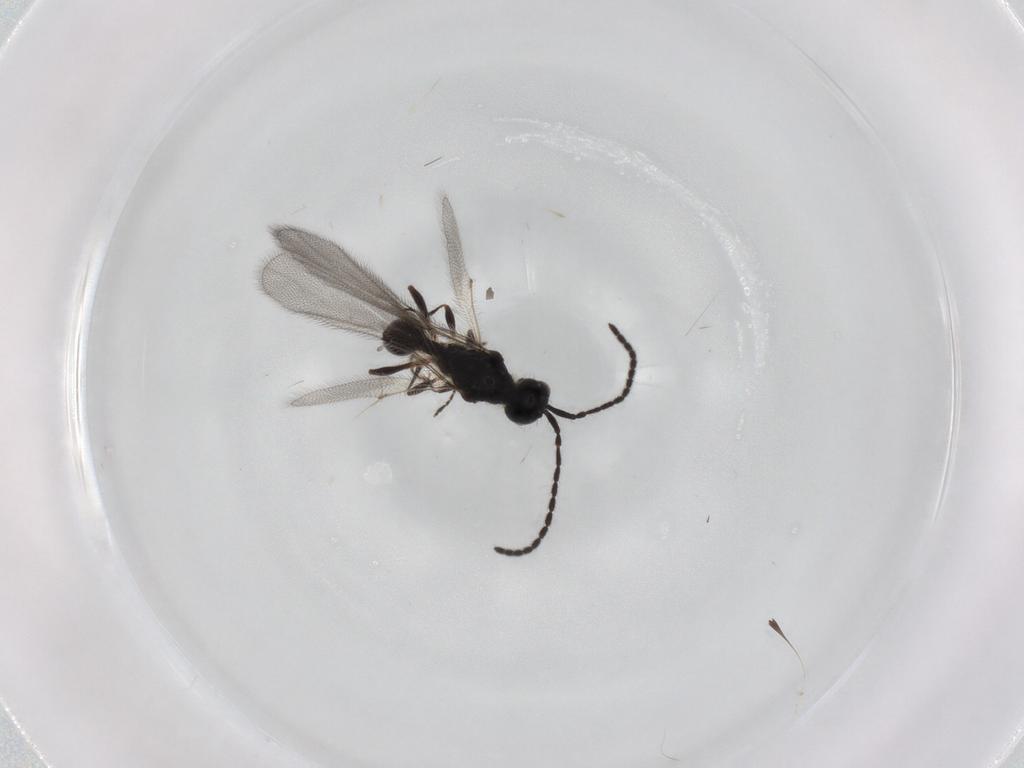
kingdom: Animalia
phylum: Arthropoda
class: Insecta
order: Hymenoptera
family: Diapriidae
